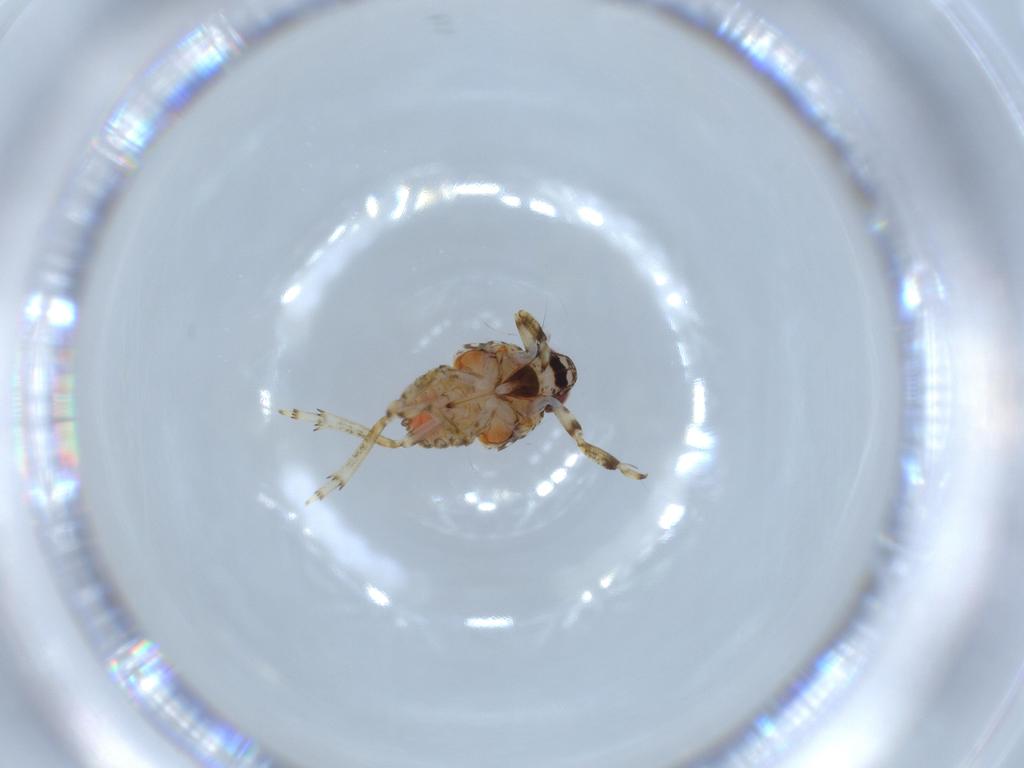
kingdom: Animalia
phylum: Arthropoda
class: Insecta
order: Hemiptera
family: Issidae
